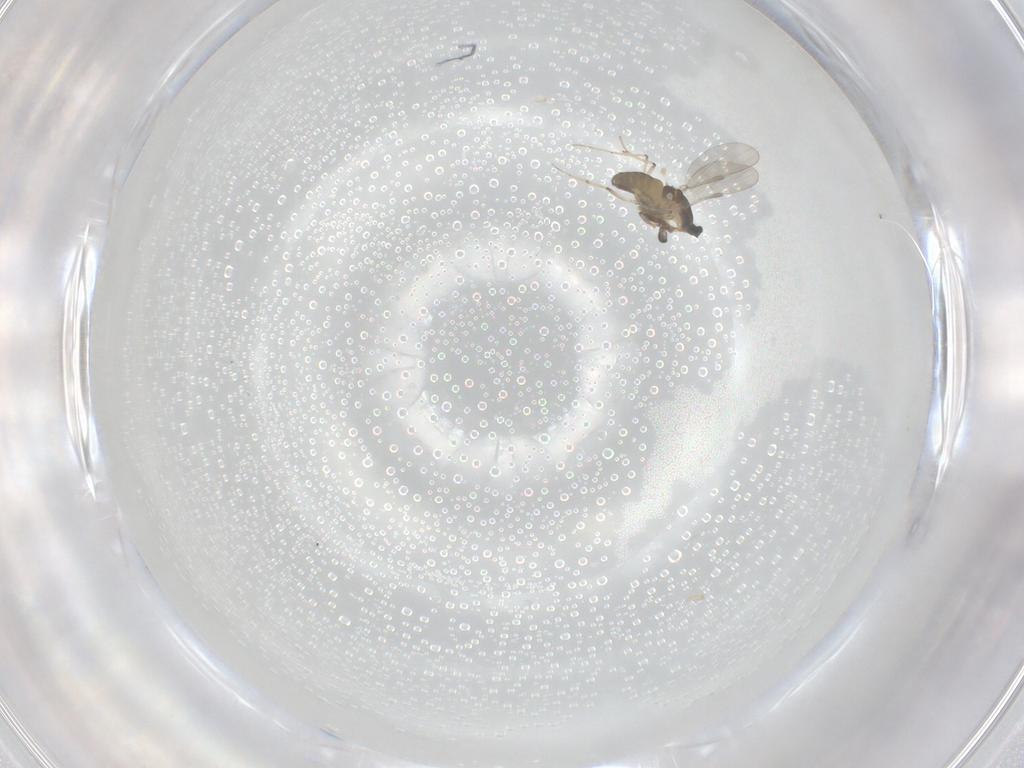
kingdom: Animalia
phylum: Arthropoda
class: Insecta
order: Diptera
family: Chironomidae
